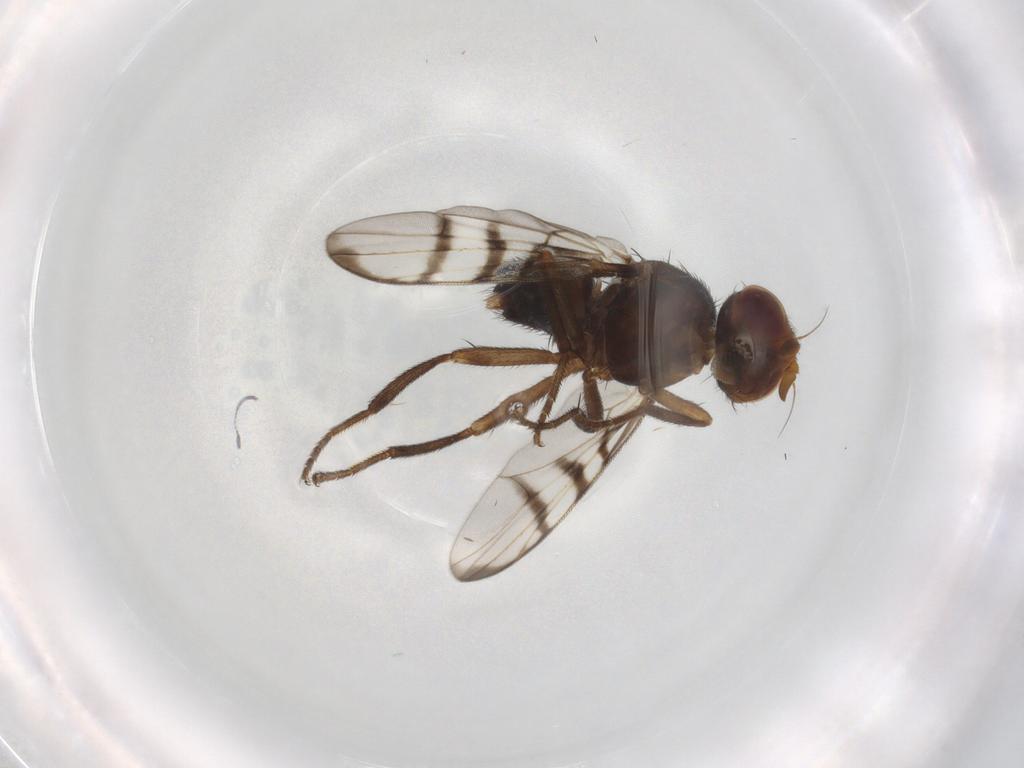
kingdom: Animalia
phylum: Arthropoda
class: Insecta
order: Diptera
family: Platystomatidae
